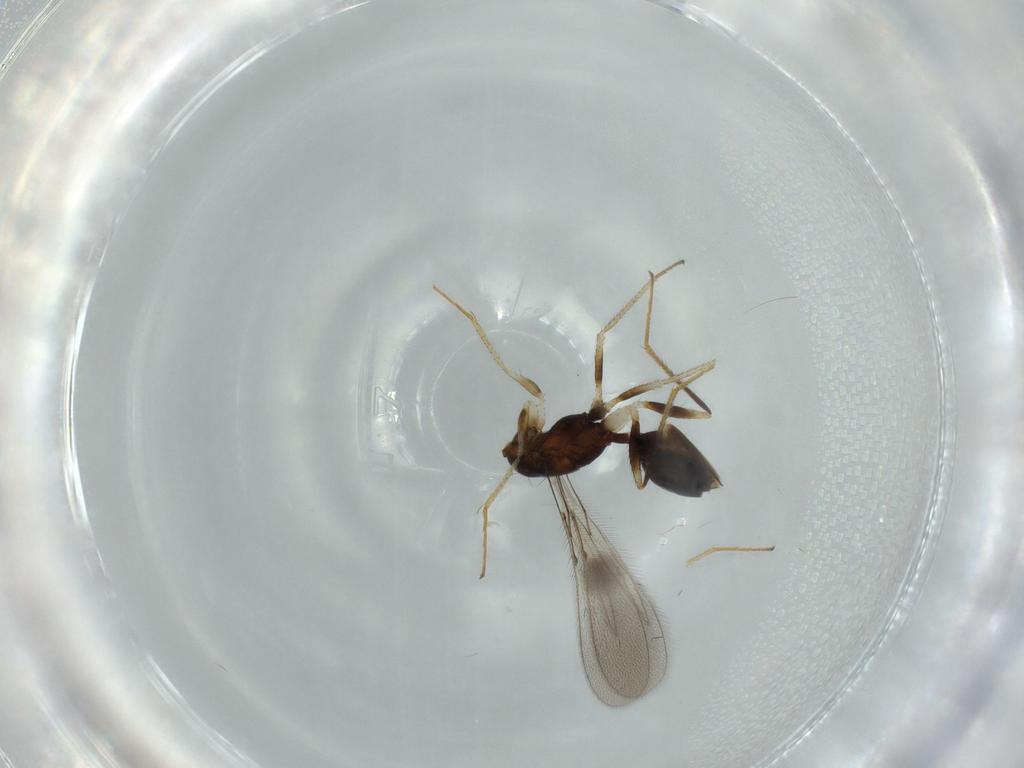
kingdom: Animalia
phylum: Arthropoda
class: Insecta
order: Hymenoptera
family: Mymaridae
